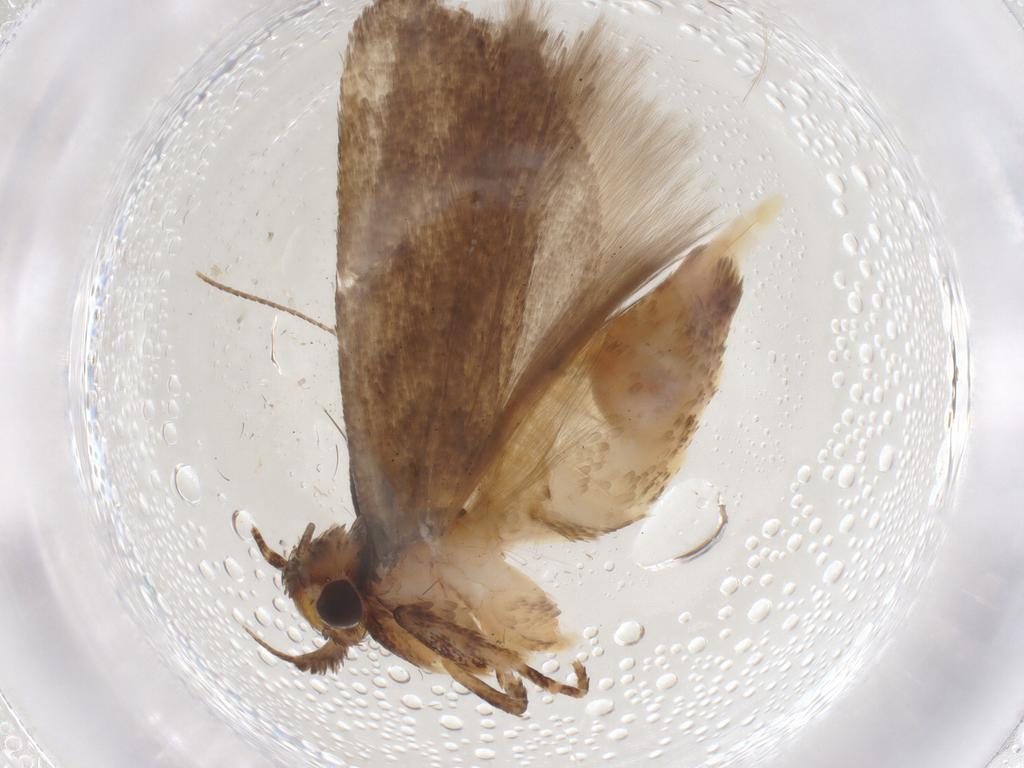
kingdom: Animalia
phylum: Arthropoda
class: Insecta
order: Lepidoptera
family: Gelechiidae
